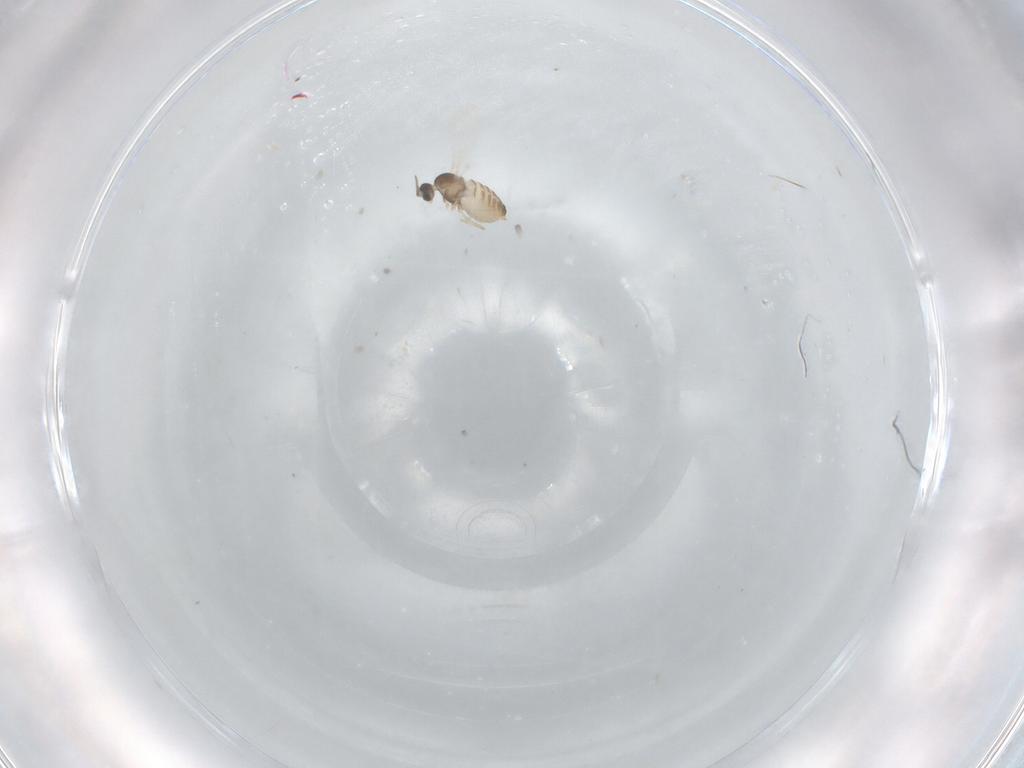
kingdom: Animalia
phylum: Arthropoda
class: Insecta
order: Diptera
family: Cecidomyiidae
